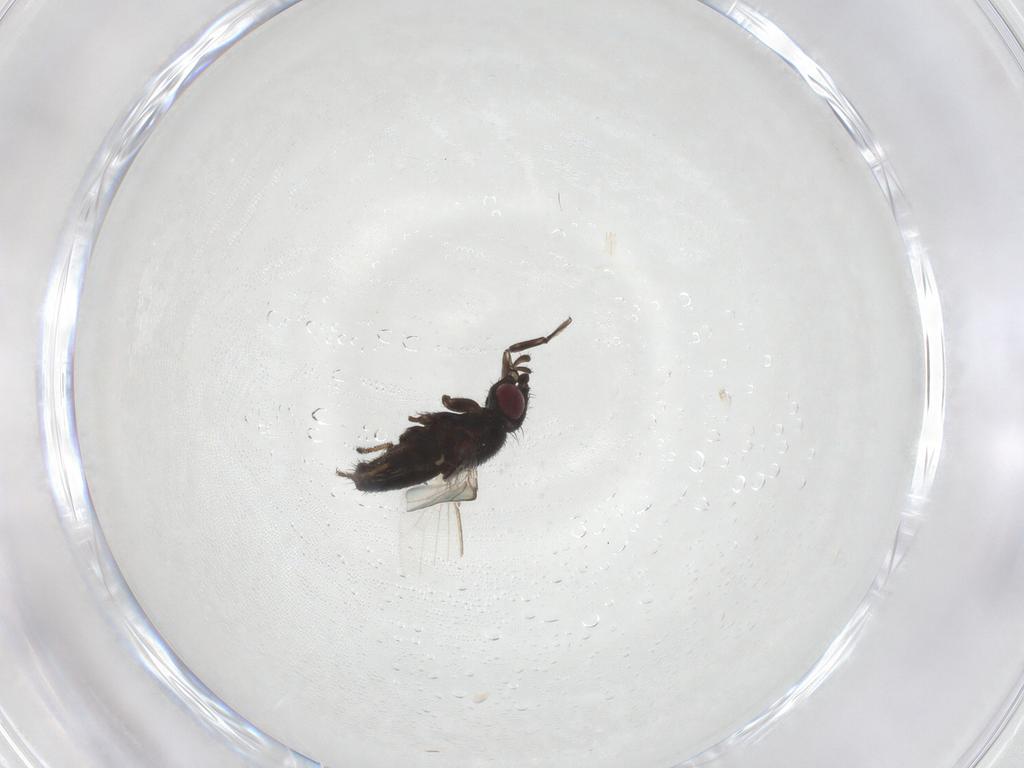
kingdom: Animalia
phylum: Arthropoda
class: Insecta
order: Diptera
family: Milichiidae
